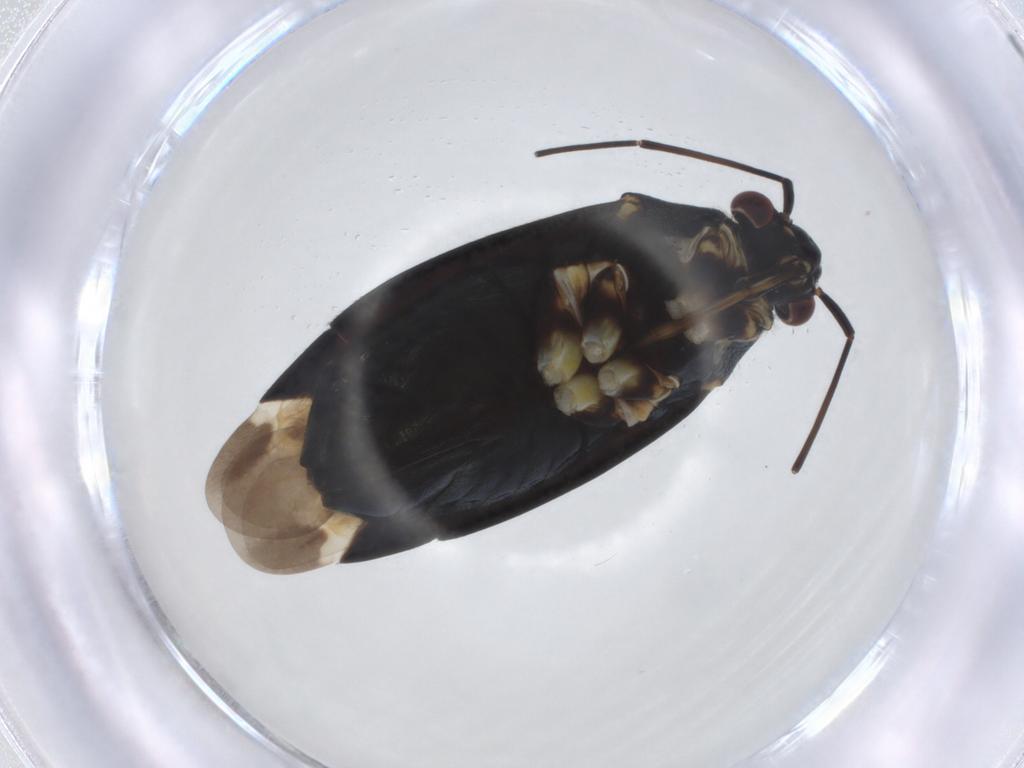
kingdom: Animalia
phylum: Arthropoda
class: Insecta
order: Hemiptera
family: Miridae
